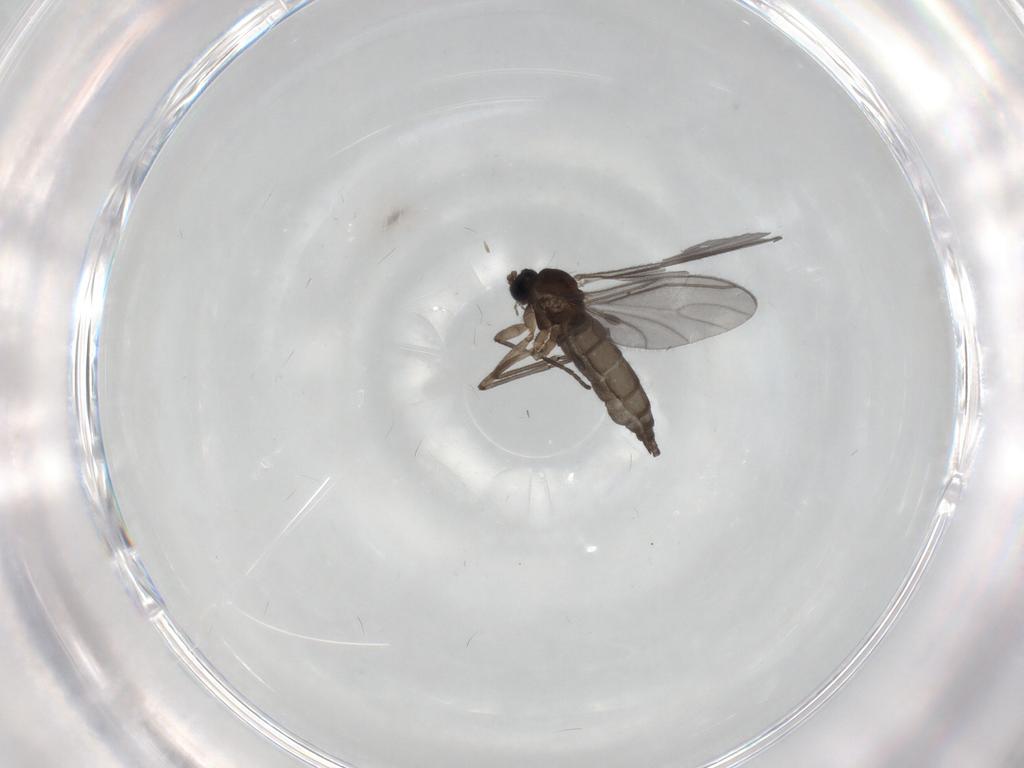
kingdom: Animalia
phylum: Arthropoda
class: Insecta
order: Diptera
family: Sciaridae
